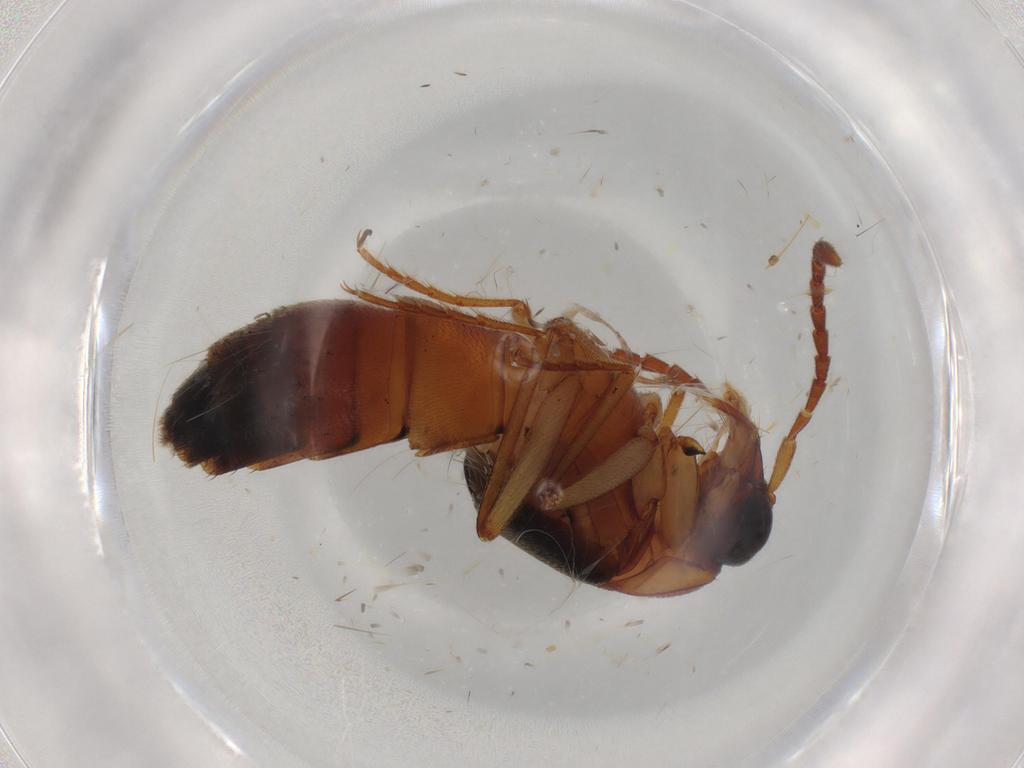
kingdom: Animalia
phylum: Arthropoda
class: Insecta
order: Coleoptera
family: Staphylinidae
